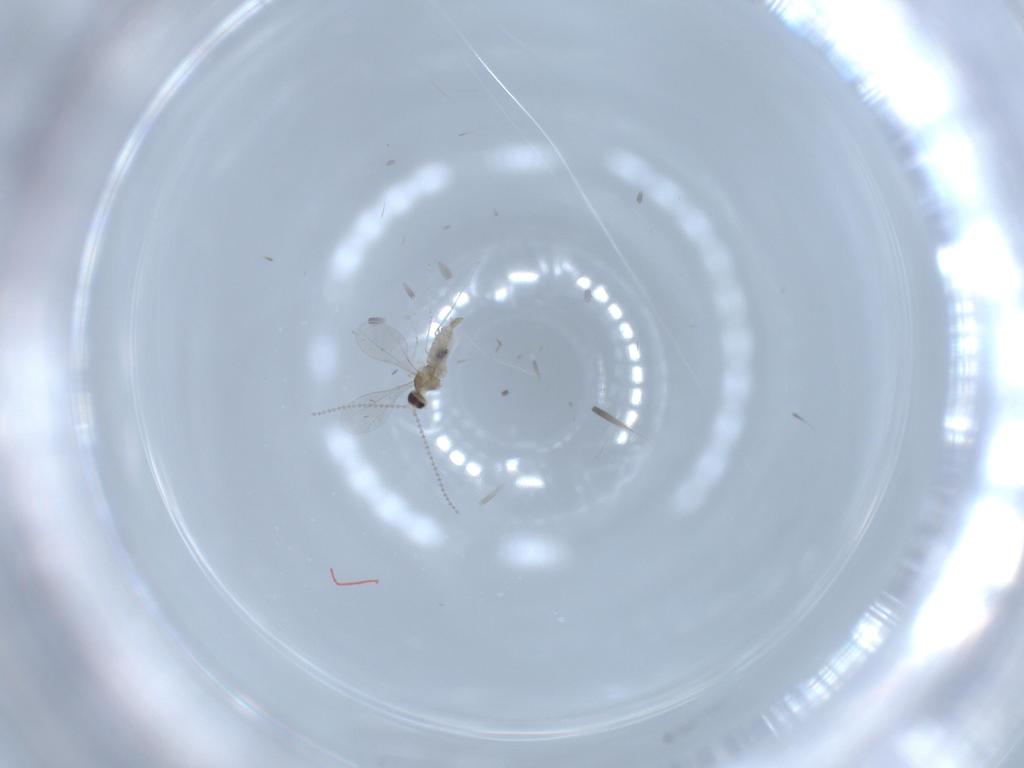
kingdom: Animalia
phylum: Arthropoda
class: Insecta
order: Diptera
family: Cecidomyiidae
